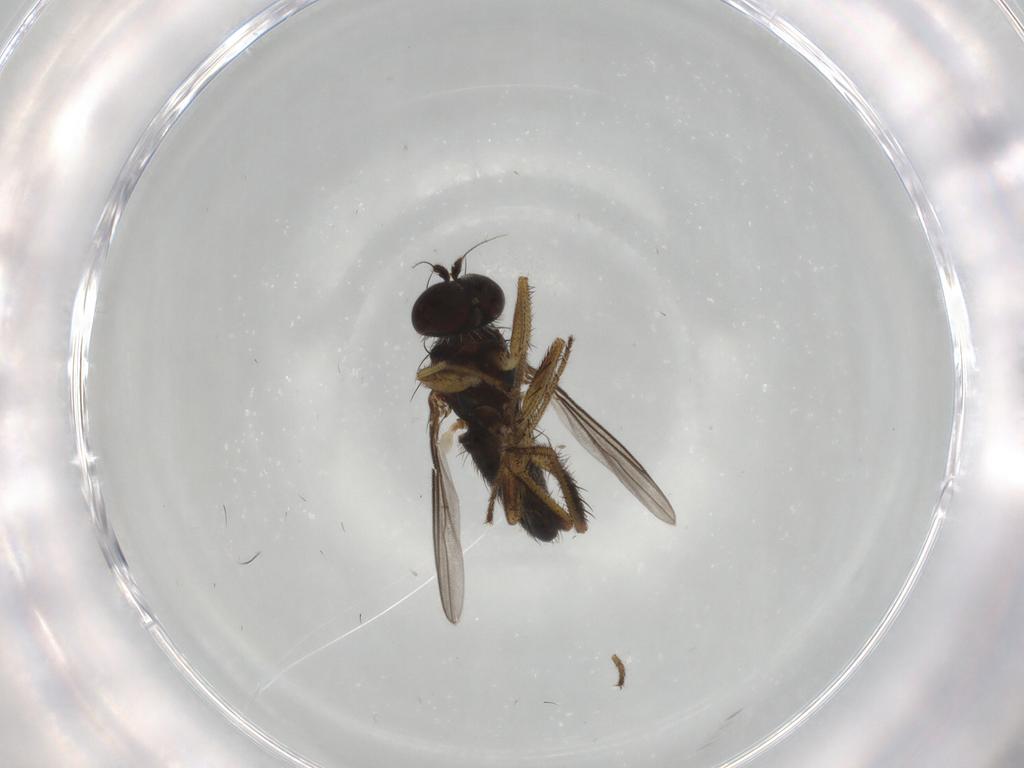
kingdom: Animalia
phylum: Arthropoda
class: Insecta
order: Diptera
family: Dolichopodidae
